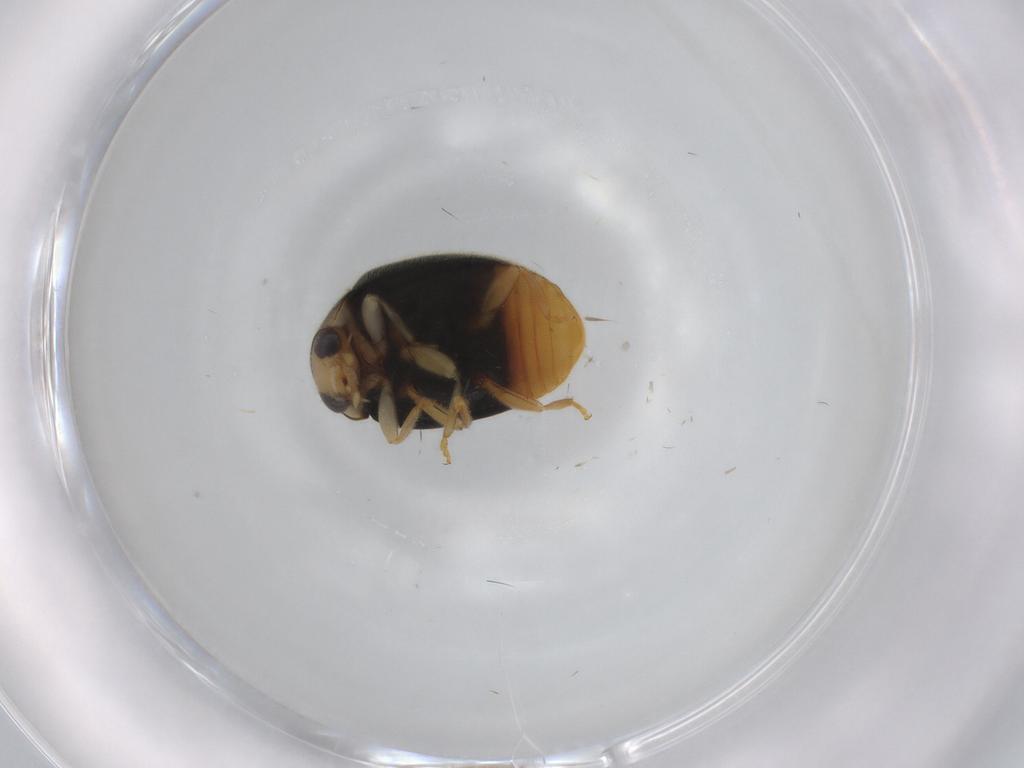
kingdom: Animalia
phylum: Arthropoda
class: Insecta
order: Coleoptera
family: Coccinellidae
